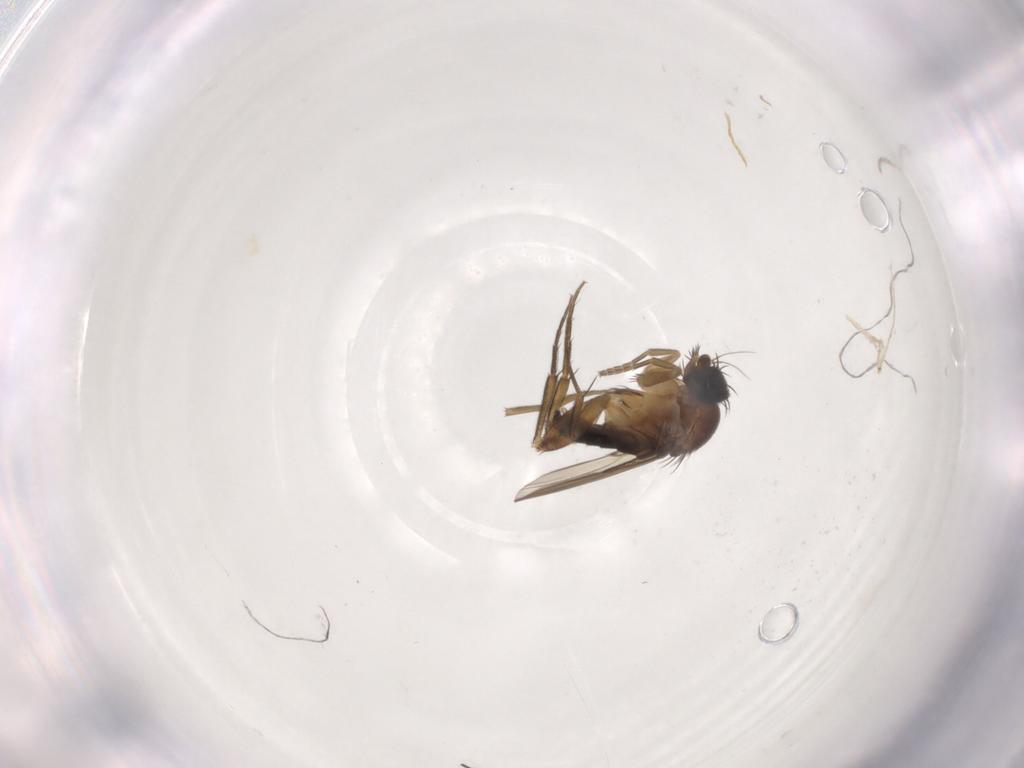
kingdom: Animalia
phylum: Arthropoda
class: Insecta
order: Diptera
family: Phoridae
